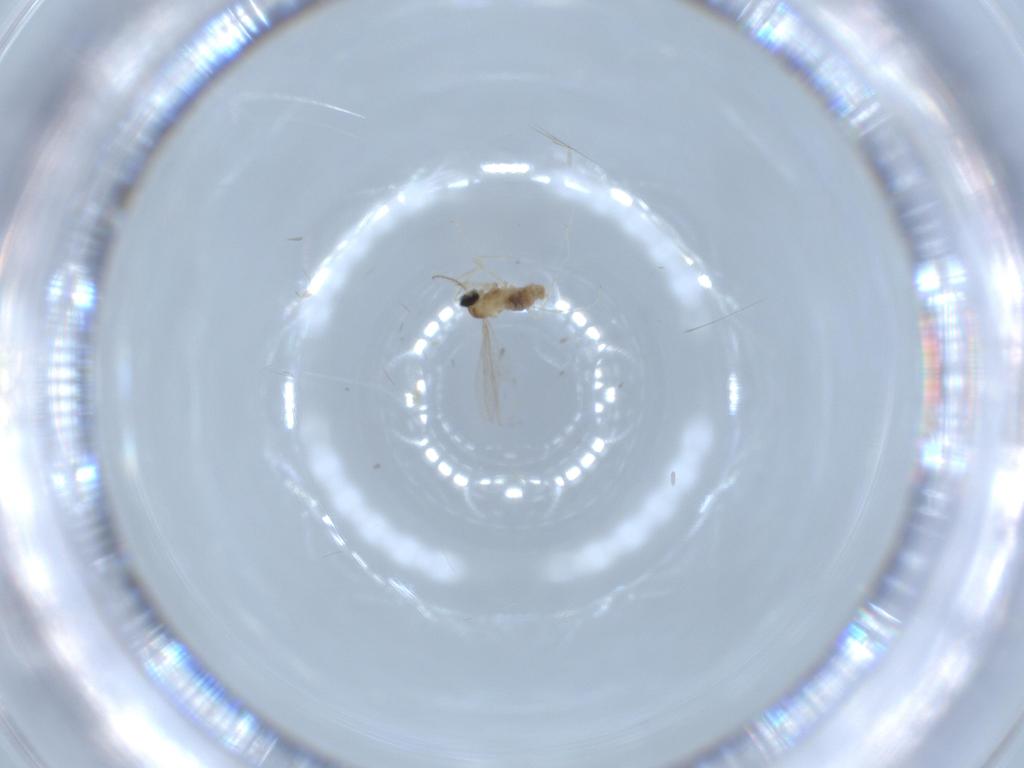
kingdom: Animalia
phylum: Arthropoda
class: Insecta
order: Diptera
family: Cecidomyiidae
